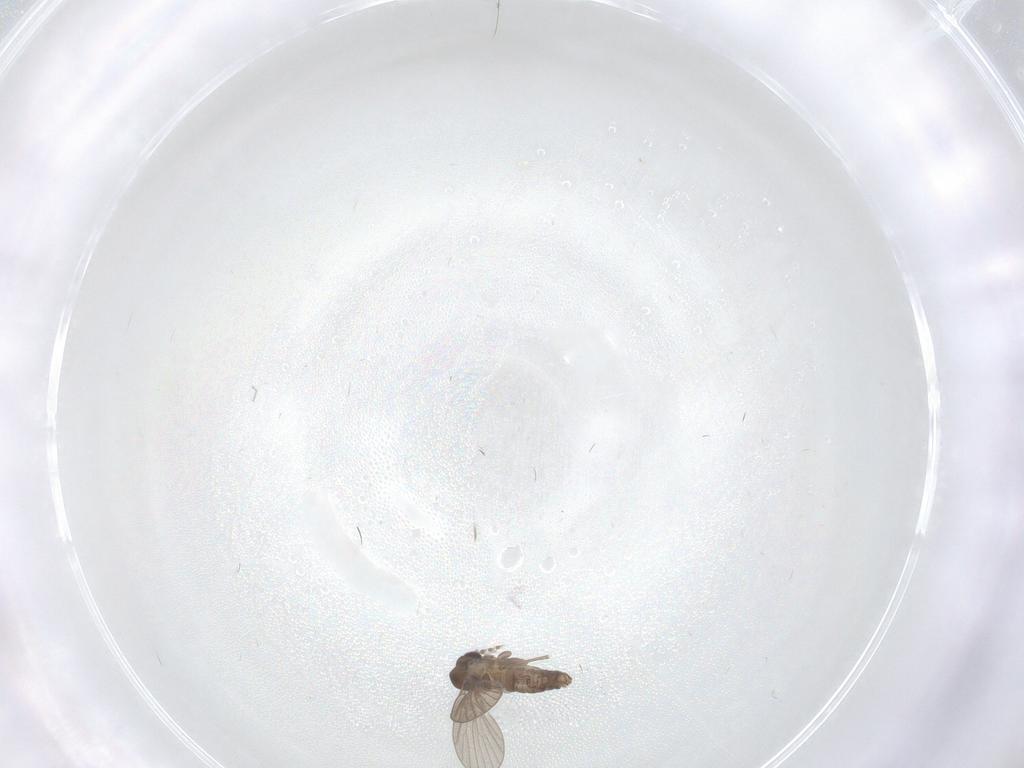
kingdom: Animalia
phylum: Arthropoda
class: Insecta
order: Diptera
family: Psychodidae
